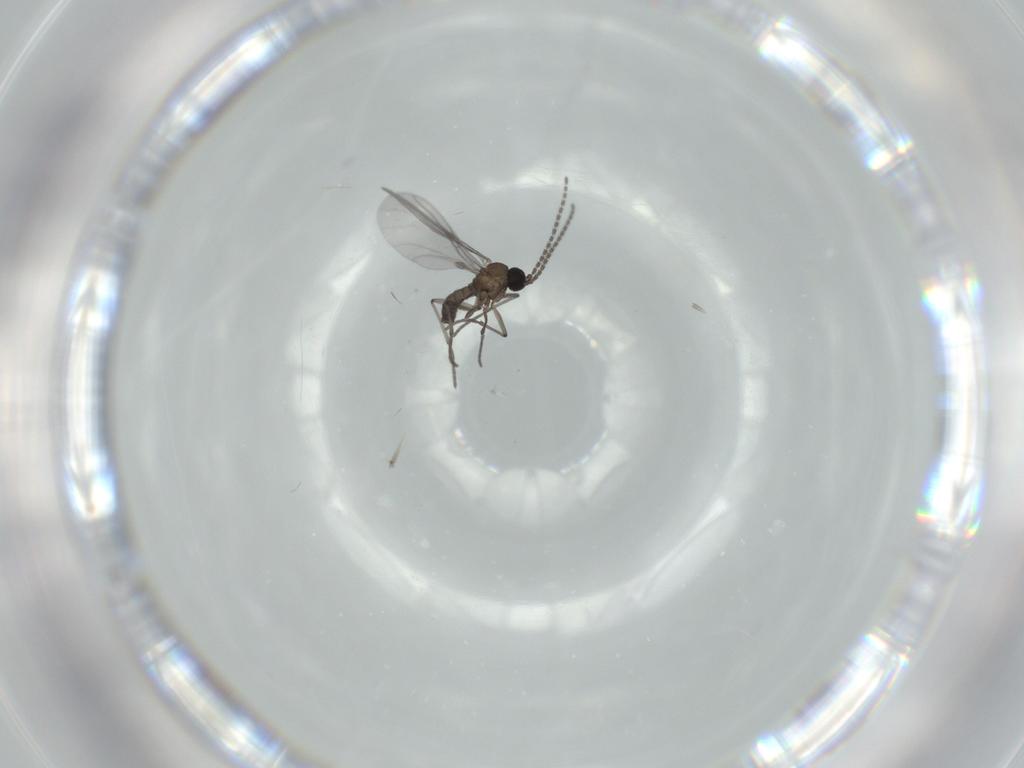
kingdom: Animalia
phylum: Arthropoda
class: Insecta
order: Diptera
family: Sciaridae
